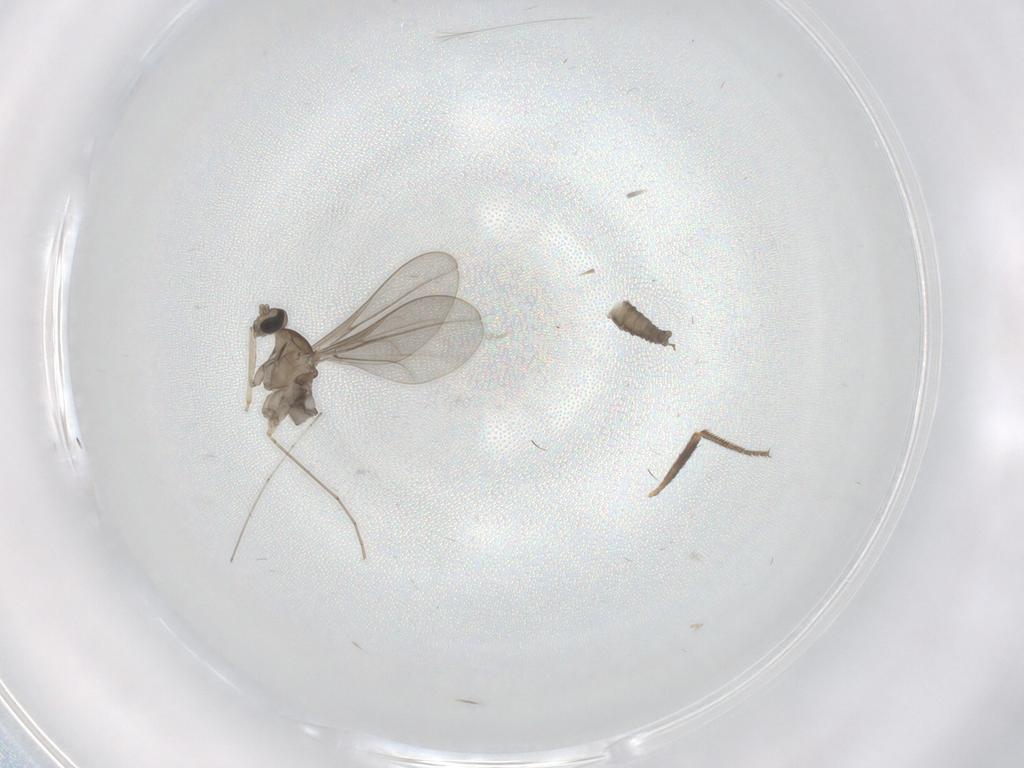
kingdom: Animalia
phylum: Arthropoda
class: Insecta
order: Diptera
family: Drosophilidae
